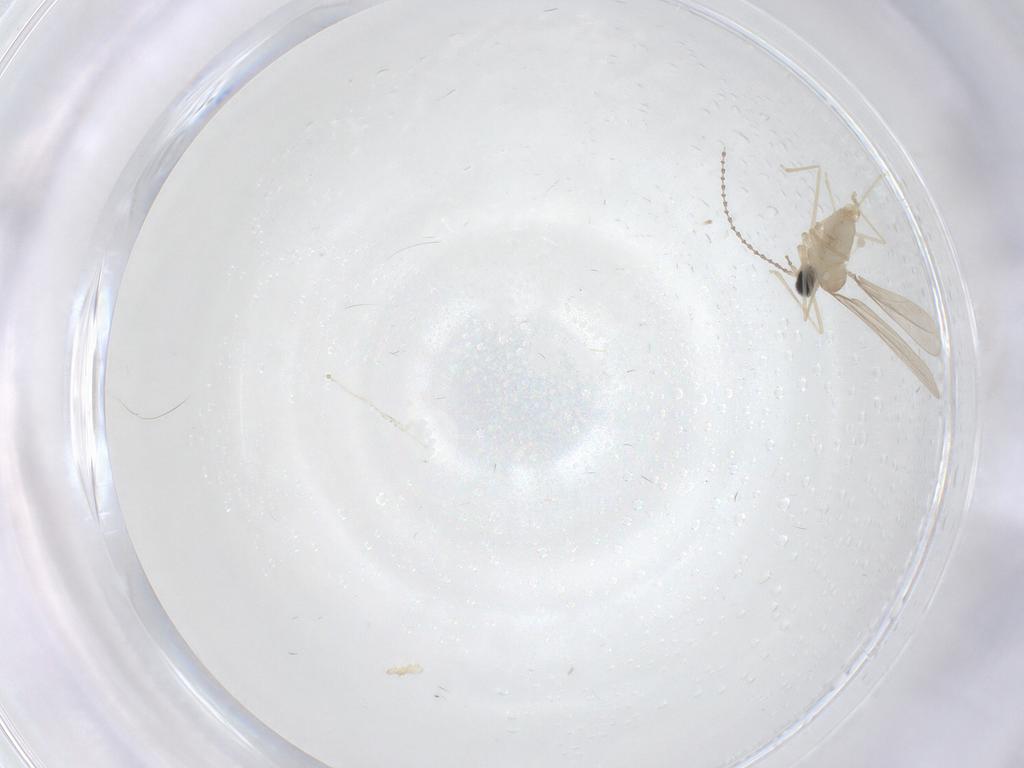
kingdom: Animalia
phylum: Arthropoda
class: Insecta
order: Diptera
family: Cecidomyiidae
